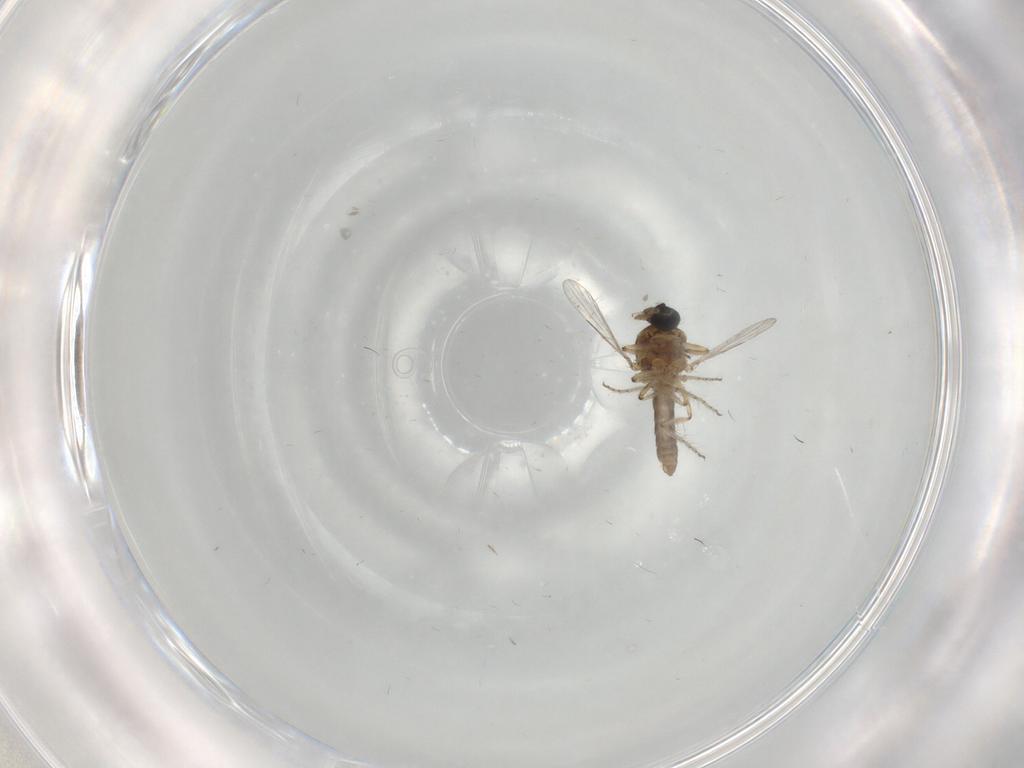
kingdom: Animalia
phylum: Arthropoda
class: Insecta
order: Diptera
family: Ceratopogonidae
